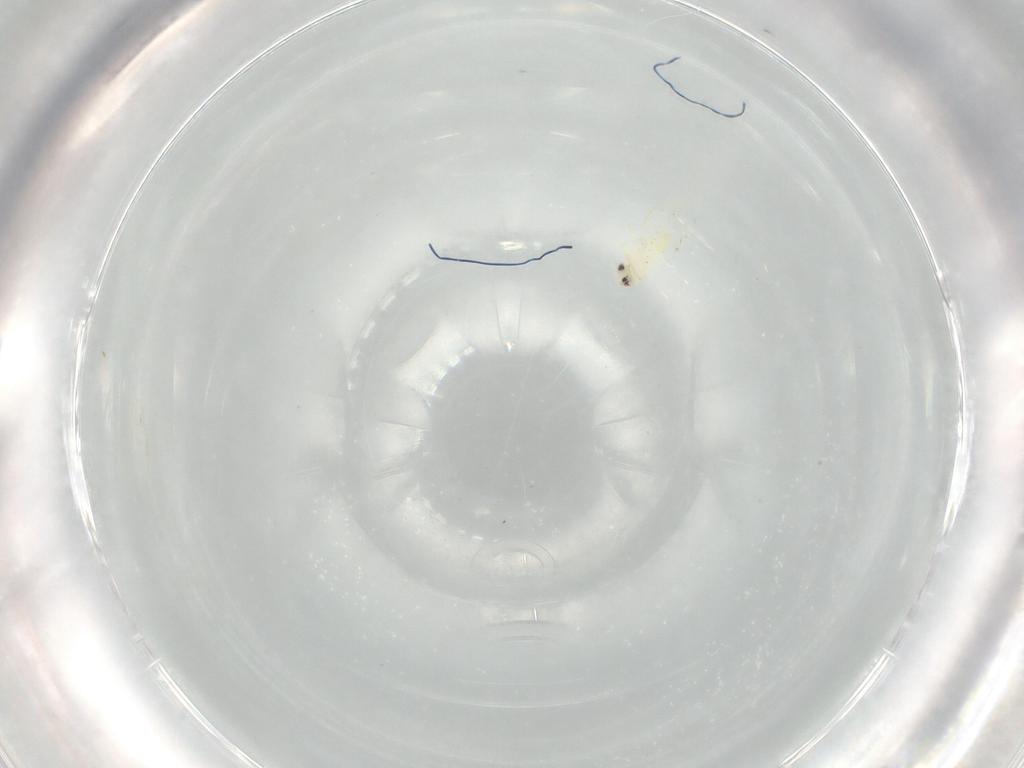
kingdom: Animalia
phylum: Arthropoda
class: Insecta
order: Hemiptera
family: Aleyrodidae
